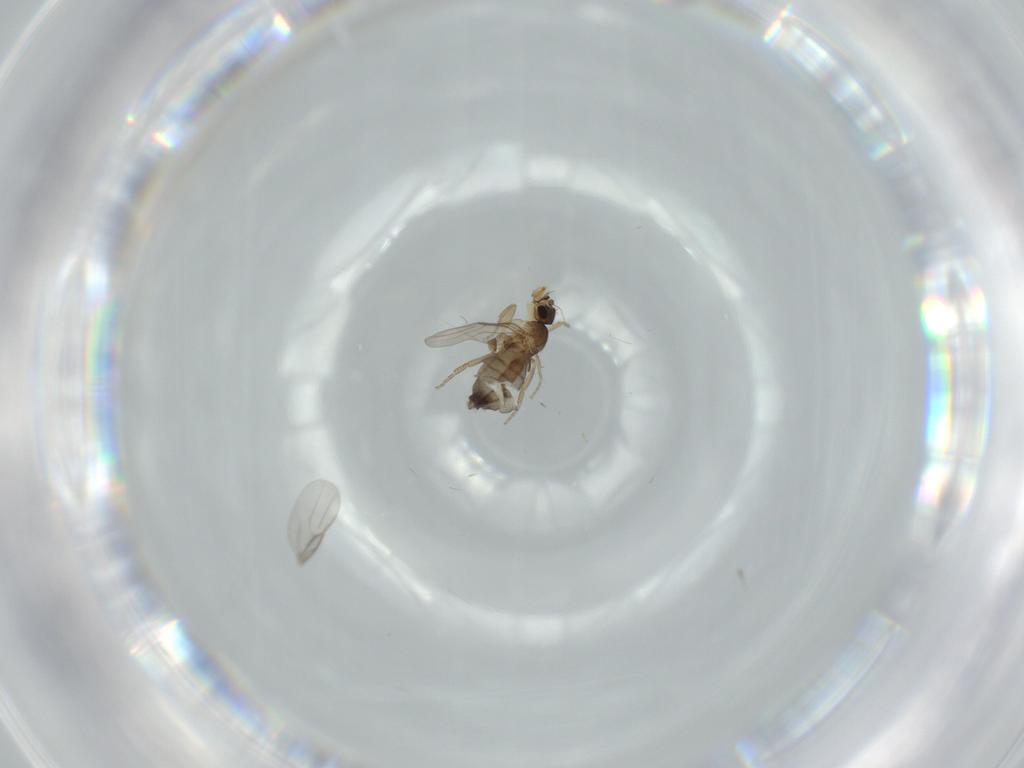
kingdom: Animalia
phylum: Arthropoda
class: Insecta
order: Diptera
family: Phoridae
